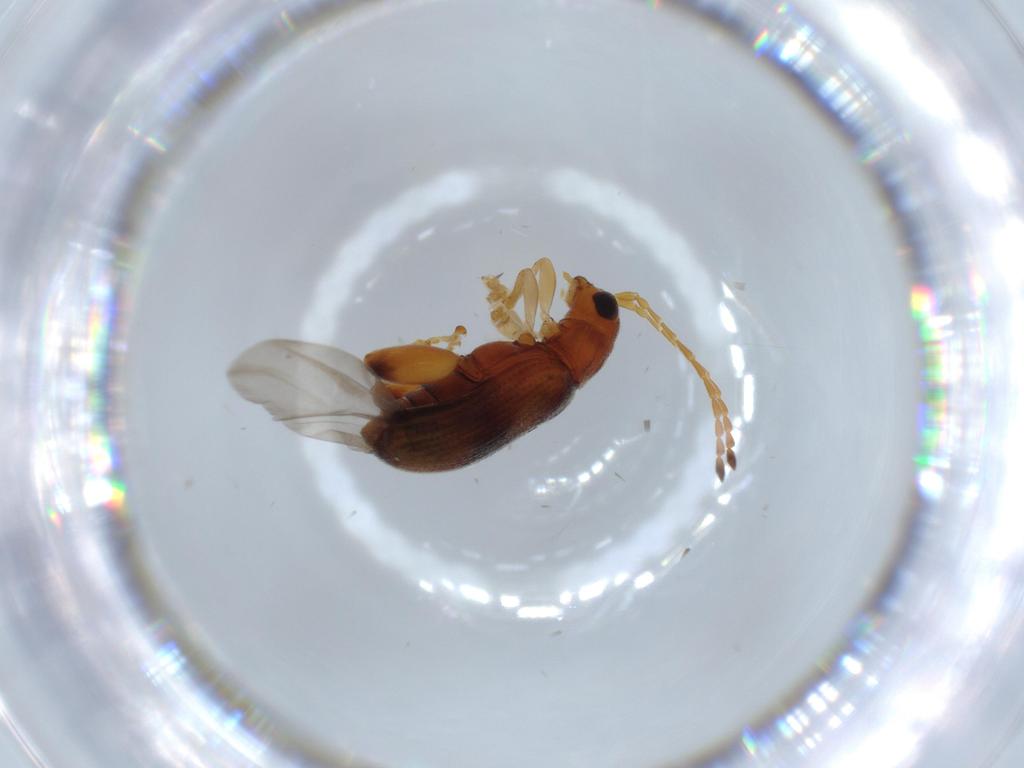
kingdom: Animalia
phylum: Arthropoda
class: Insecta
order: Coleoptera
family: Chrysomelidae
